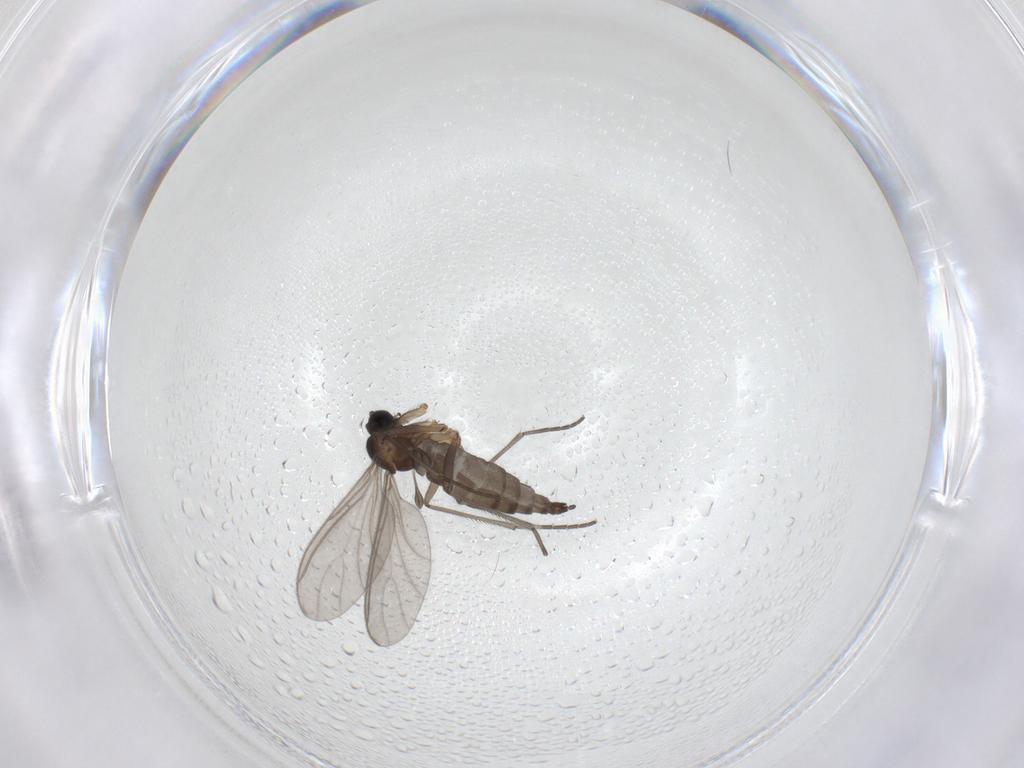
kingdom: Animalia
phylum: Arthropoda
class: Insecta
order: Diptera
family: Sciaridae
